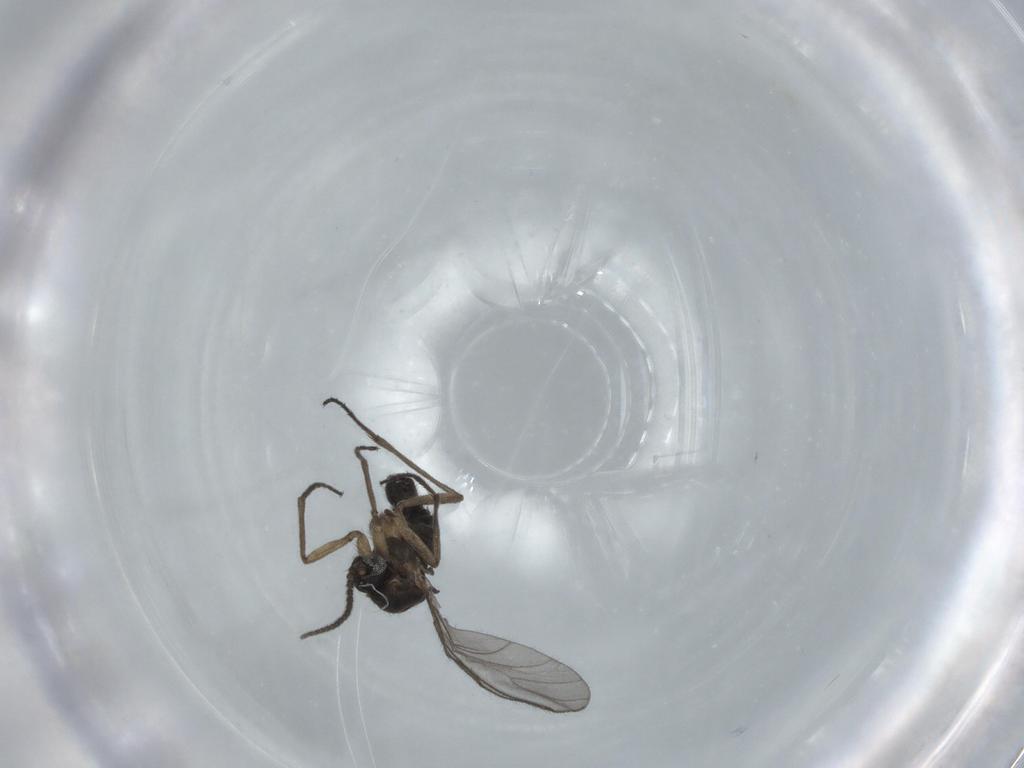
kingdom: Animalia
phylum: Arthropoda
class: Insecta
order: Diptera
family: Sciaridae
